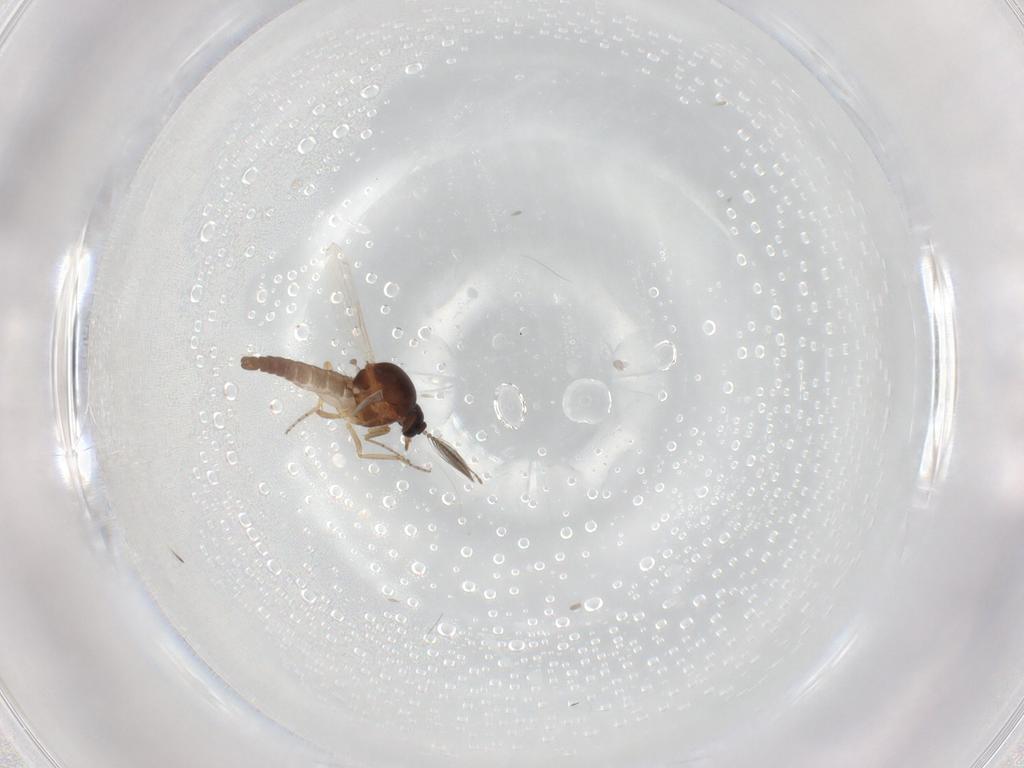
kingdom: Animalia
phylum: Arthropoda
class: Insecta
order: Diptera
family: Ceratopogonidae
